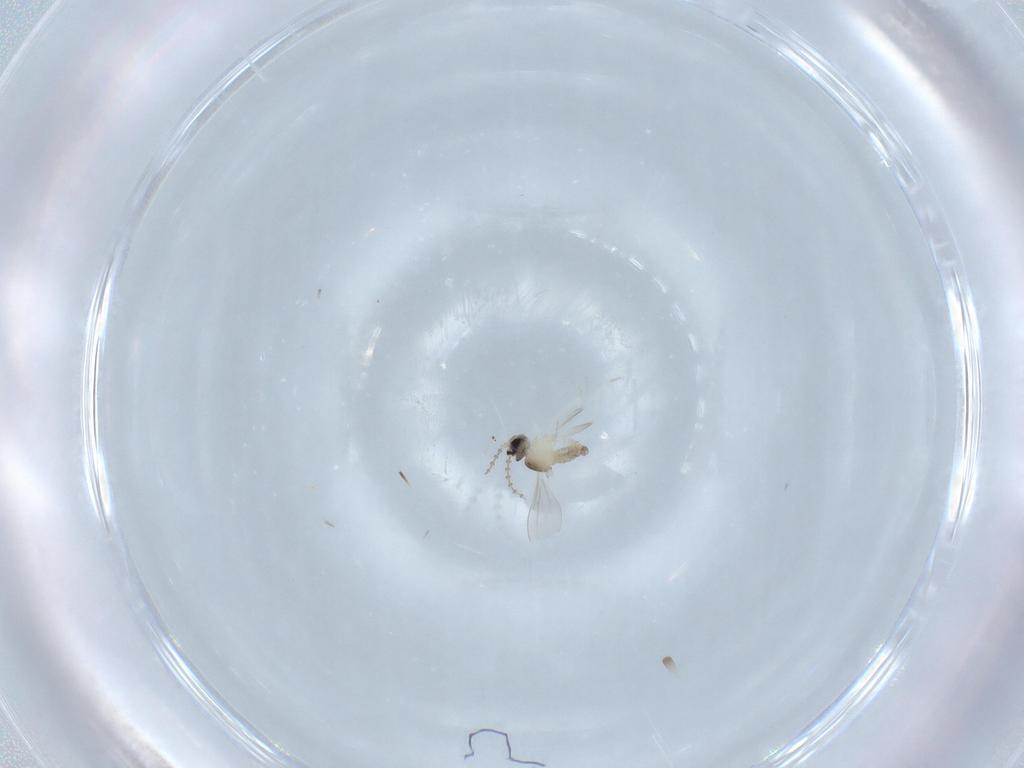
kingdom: Animalia
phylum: Arthropoda
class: Insecta
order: Diptera
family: Cecidomyiidae
